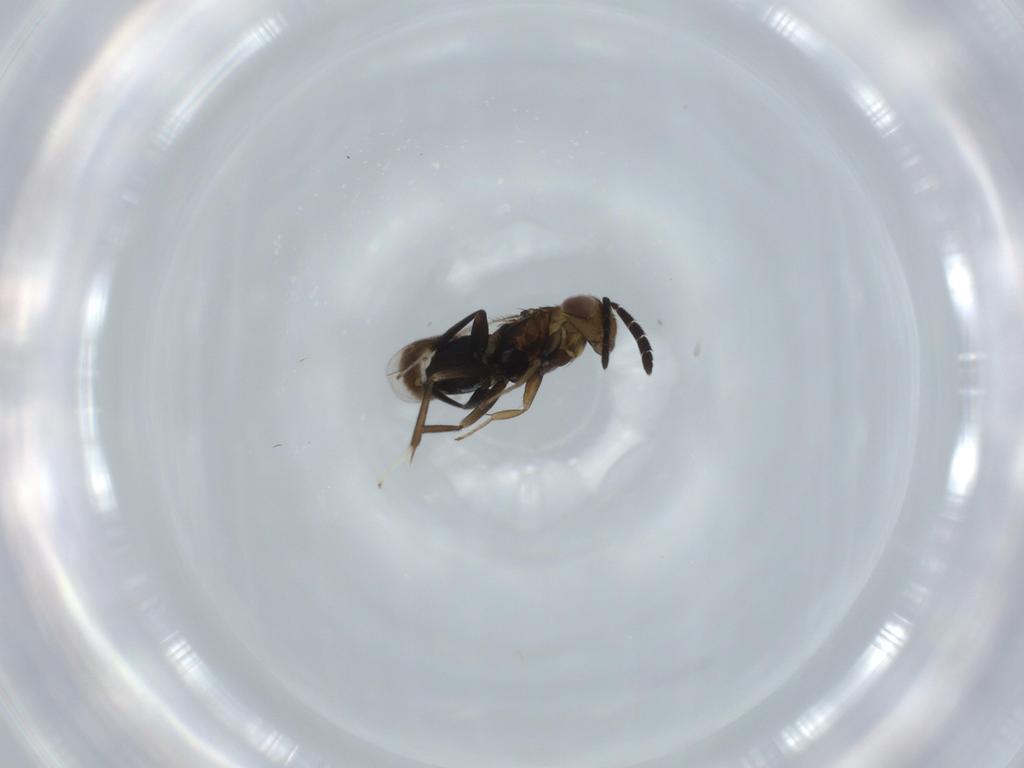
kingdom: Animalia
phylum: Arthropoda
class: Insecta
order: Hymenoptera
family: Aphelinidae
